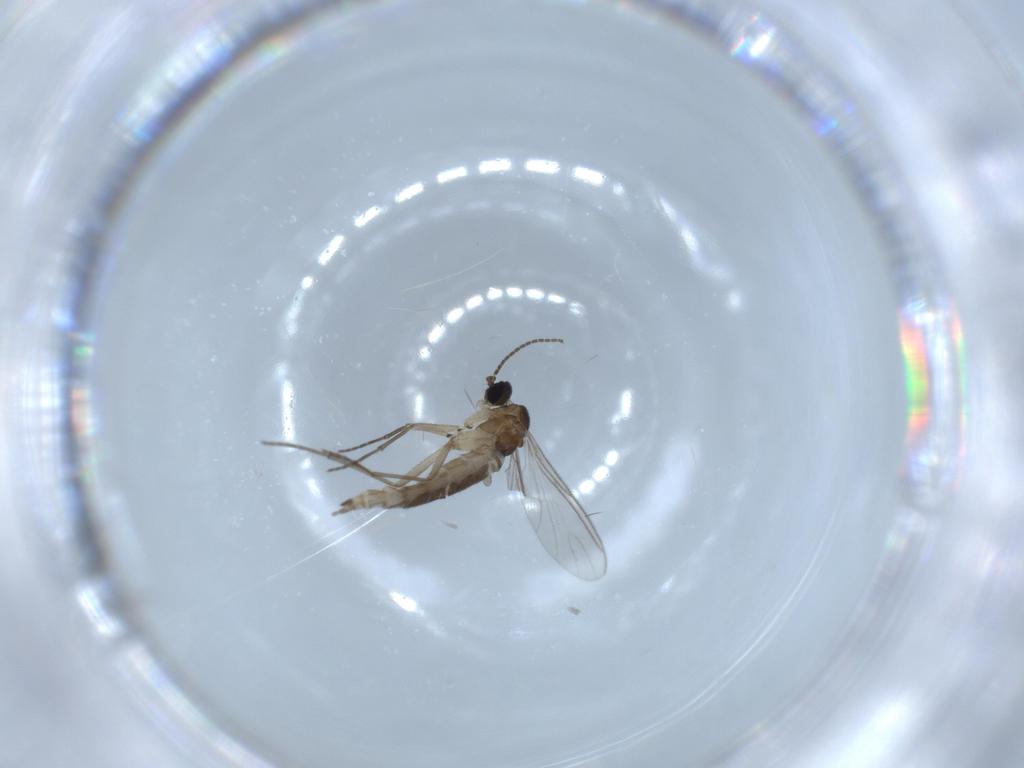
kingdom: Animalia
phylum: Arthropoda
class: Insecta
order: Diptera
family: Sciaridae
